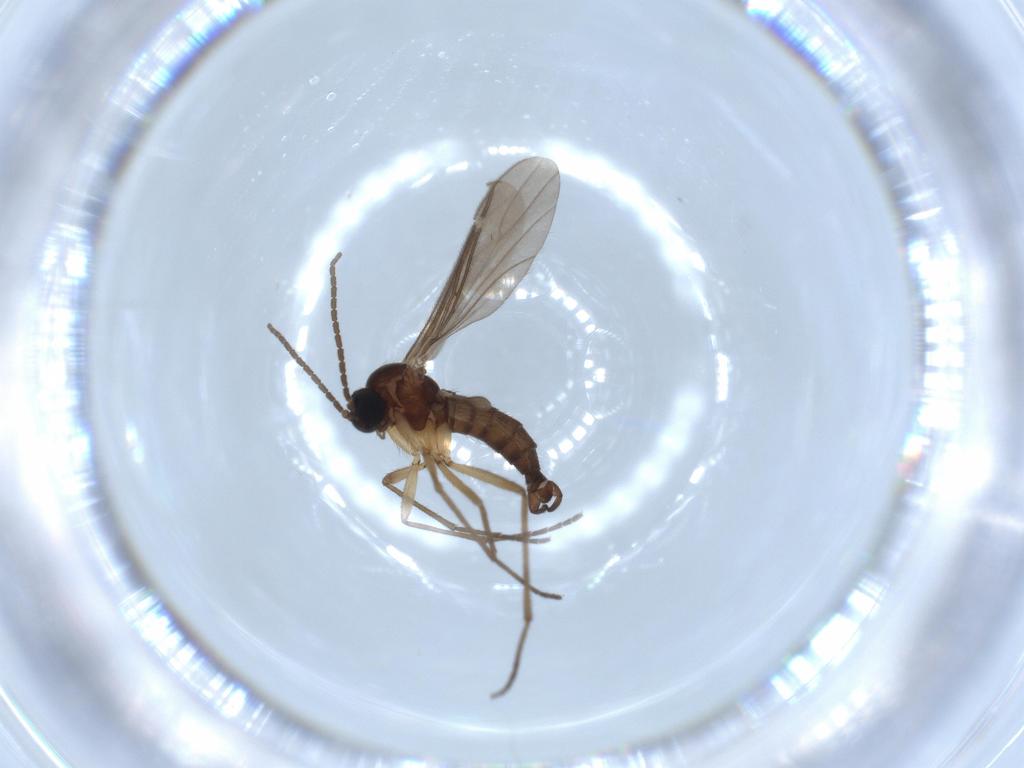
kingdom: Animalia
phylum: Arthropoda
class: Insecta
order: Diptera
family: Sciaridae
